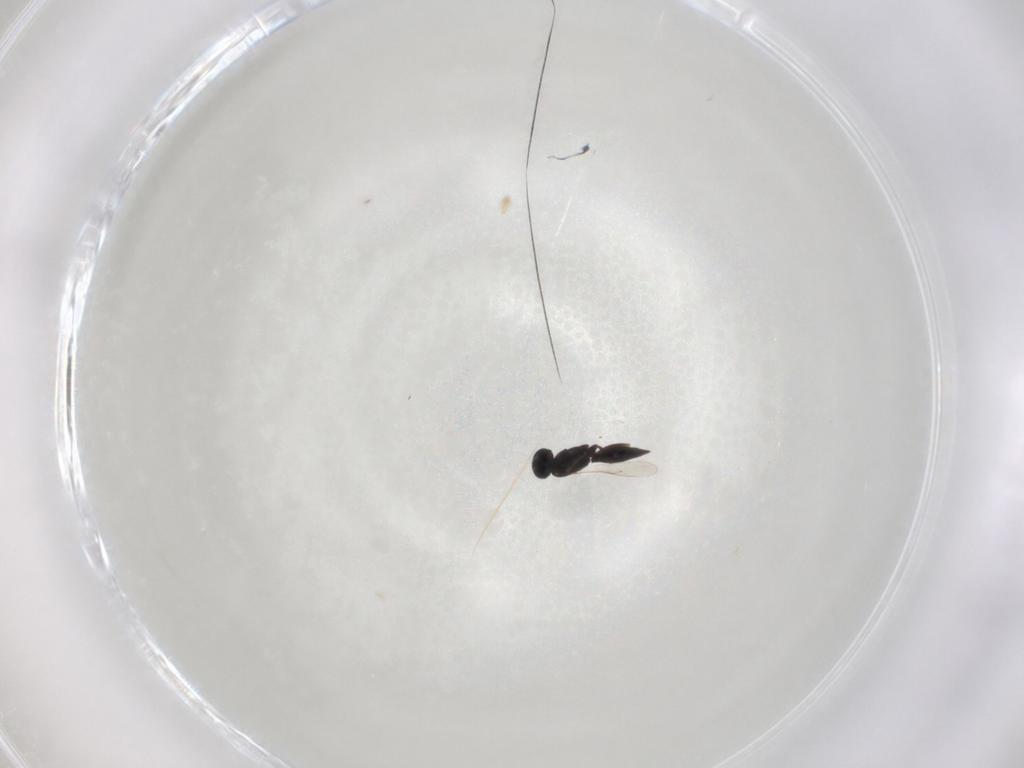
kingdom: Animalia
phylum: Arthropoda
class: Insecta
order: Hymenoptera
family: Scelionidae
